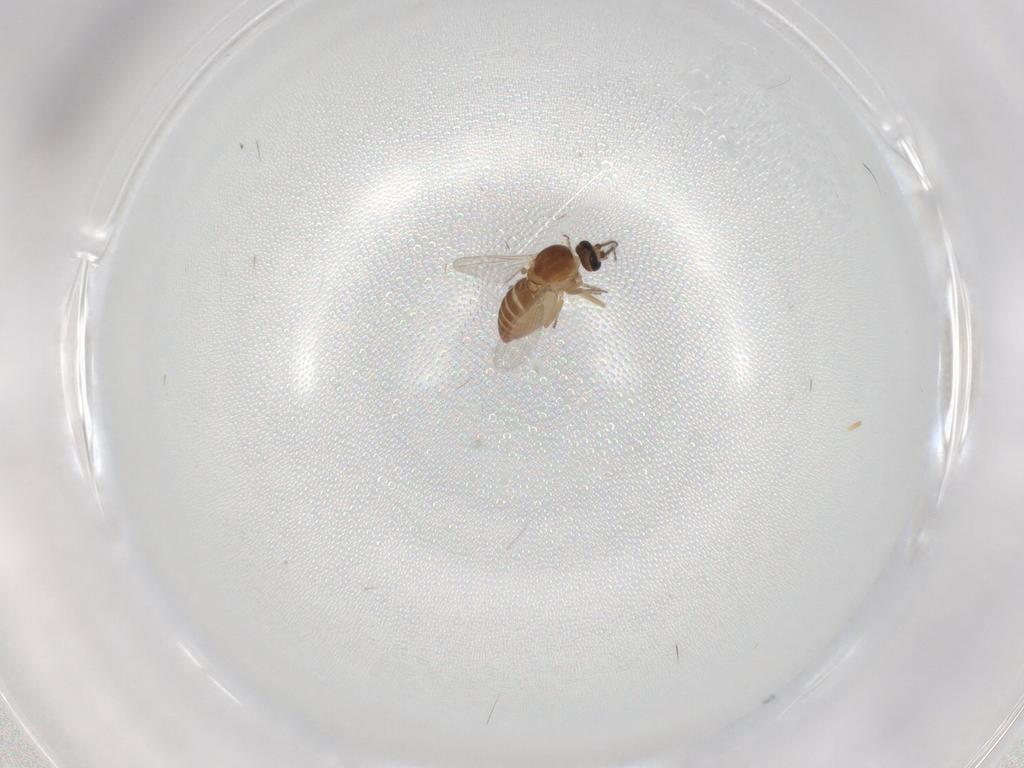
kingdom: Animalia
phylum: Arthropoda
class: Insecta
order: Diptera
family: Ceratopogonidae
